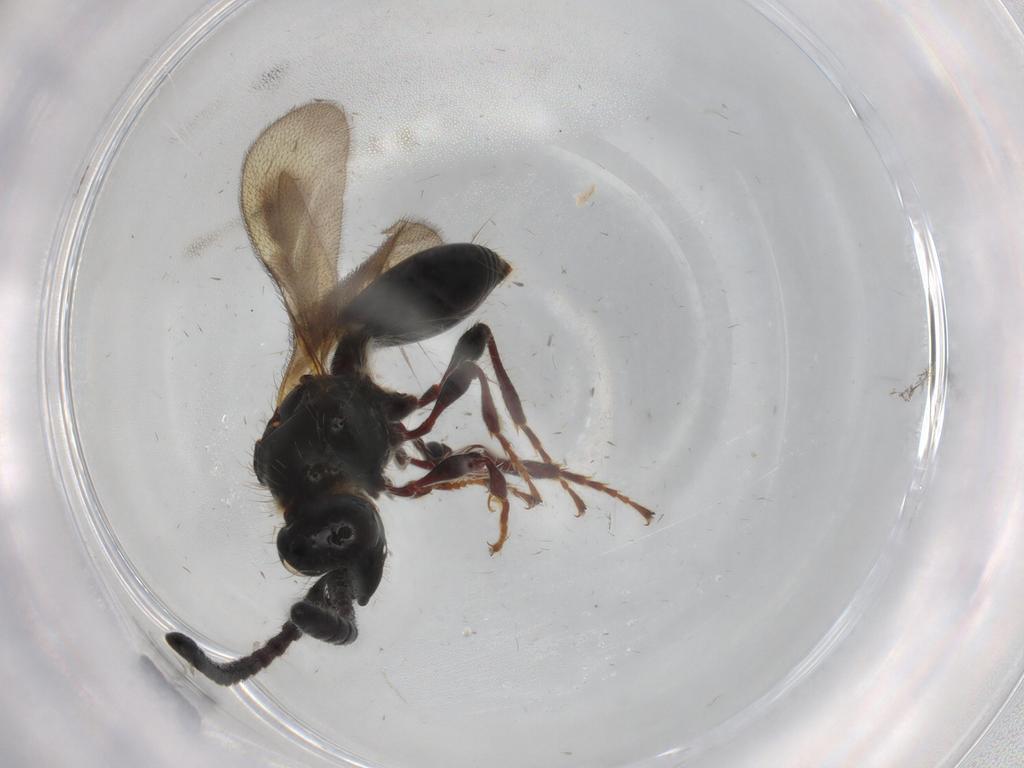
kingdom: Animalia
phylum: Arthropoda
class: Insecta
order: Hymenoptera
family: Diapriidae
